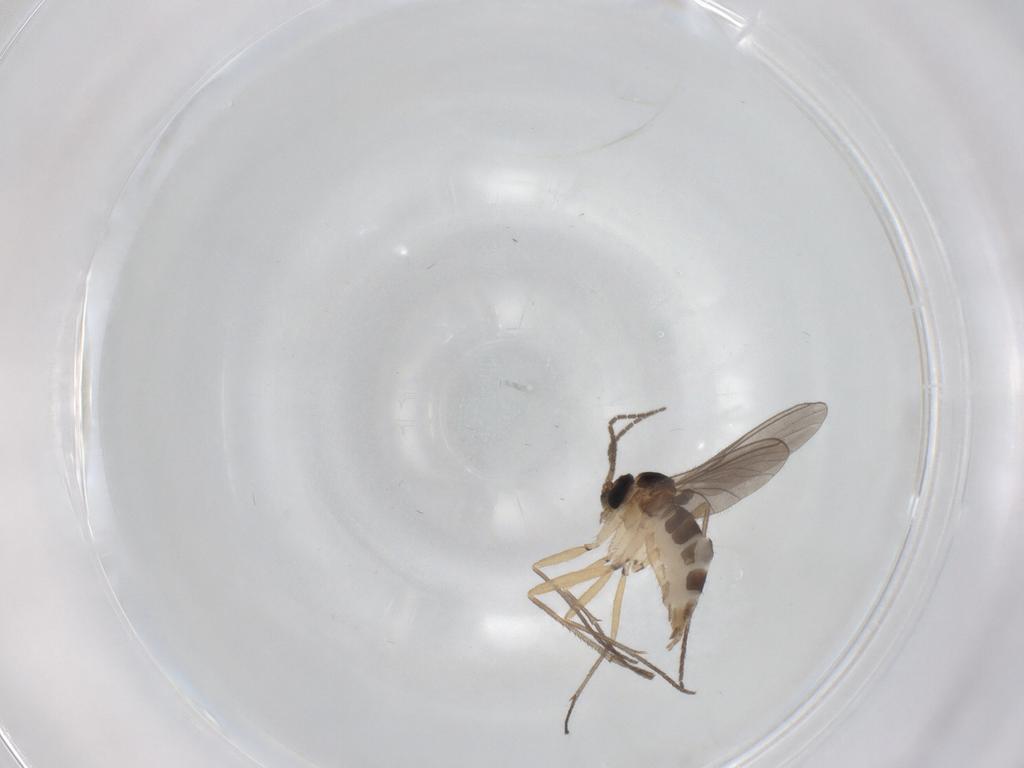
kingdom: Animalia
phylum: Arthropoda
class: Insecta
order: Diptera
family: Sciaridae
